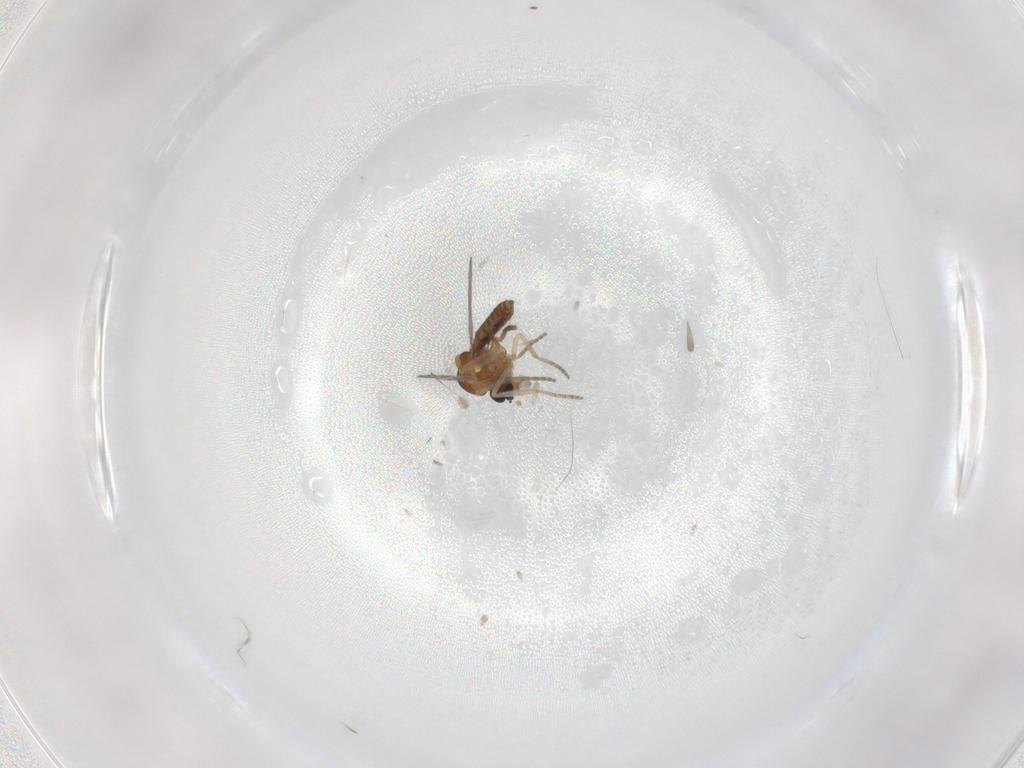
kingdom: Animalia
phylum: Arthropoda
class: Insecta
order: Diptera
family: Ceratopogonidae
